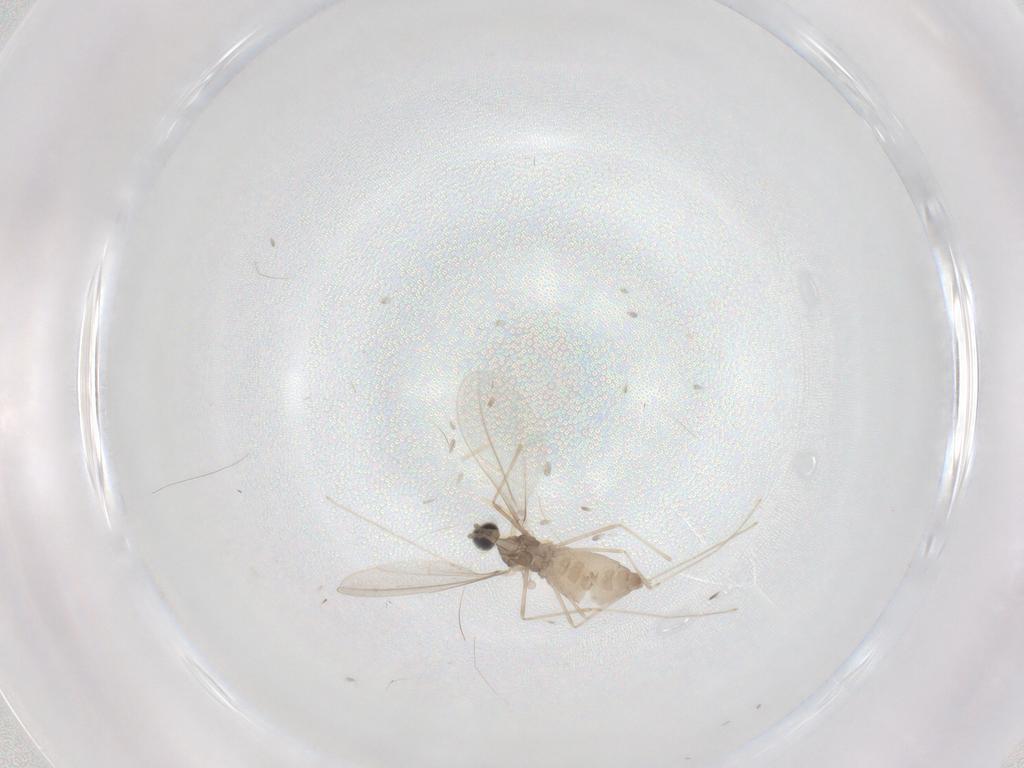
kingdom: Animalia
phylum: Arthropoda
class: Insecta
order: Diptera
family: Cecidomyiidae
